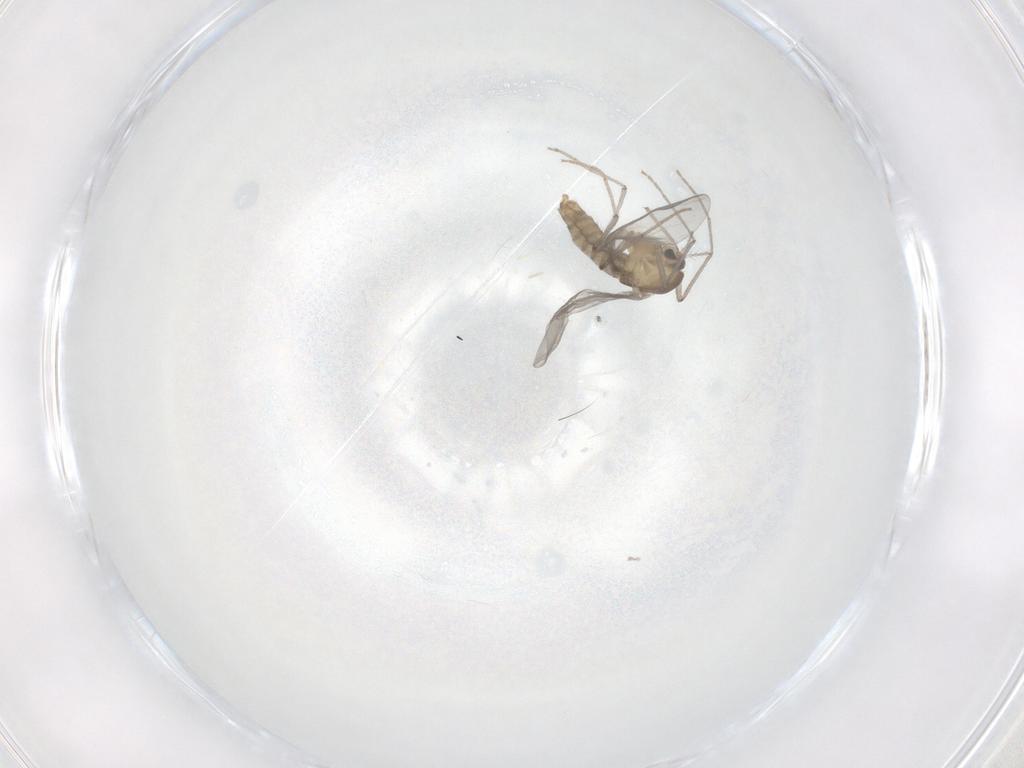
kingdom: Animalia
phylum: Arthropoda
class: Insecta
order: Diptera
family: Chironomidae
